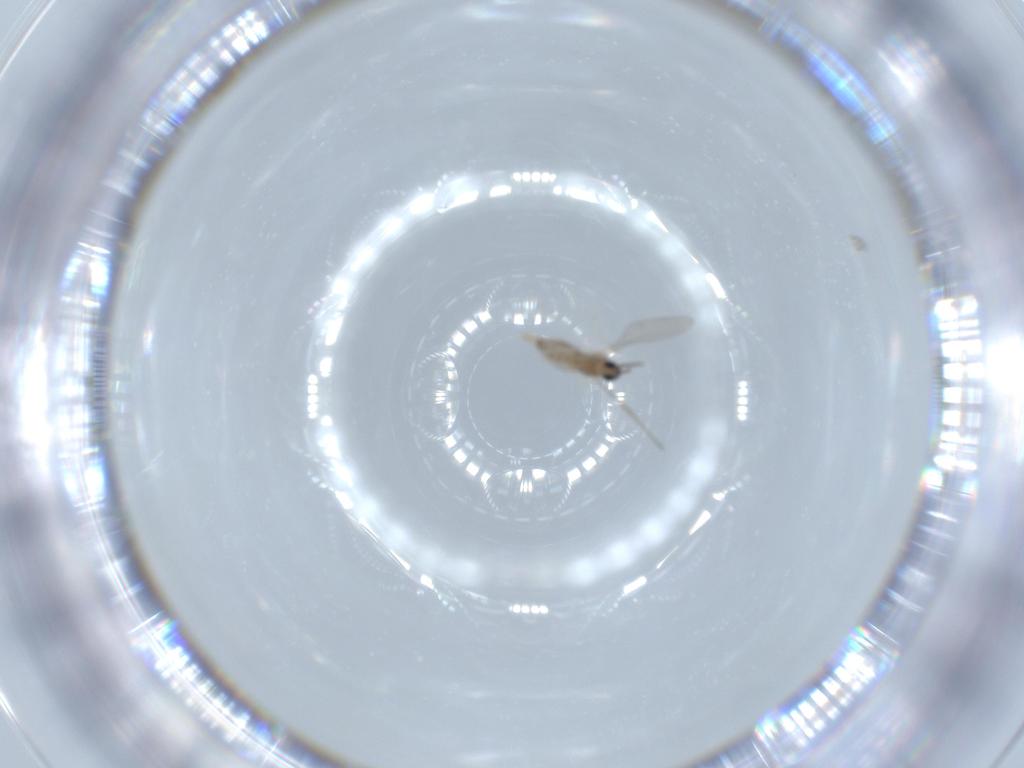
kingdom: Animalia
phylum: Arthropoda
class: Insecta
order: Diptera
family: Cecidomyiidae
